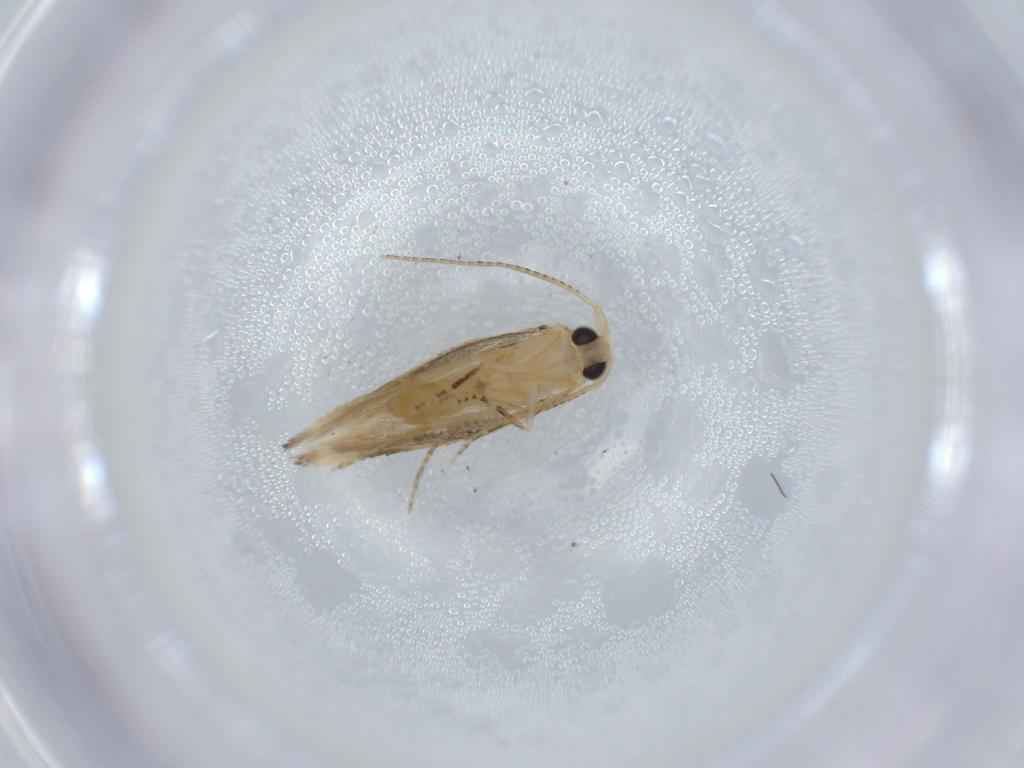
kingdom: Animalia
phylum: Arthropoda
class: Insecta
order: Lepidoptera
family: Bucculatricidae
